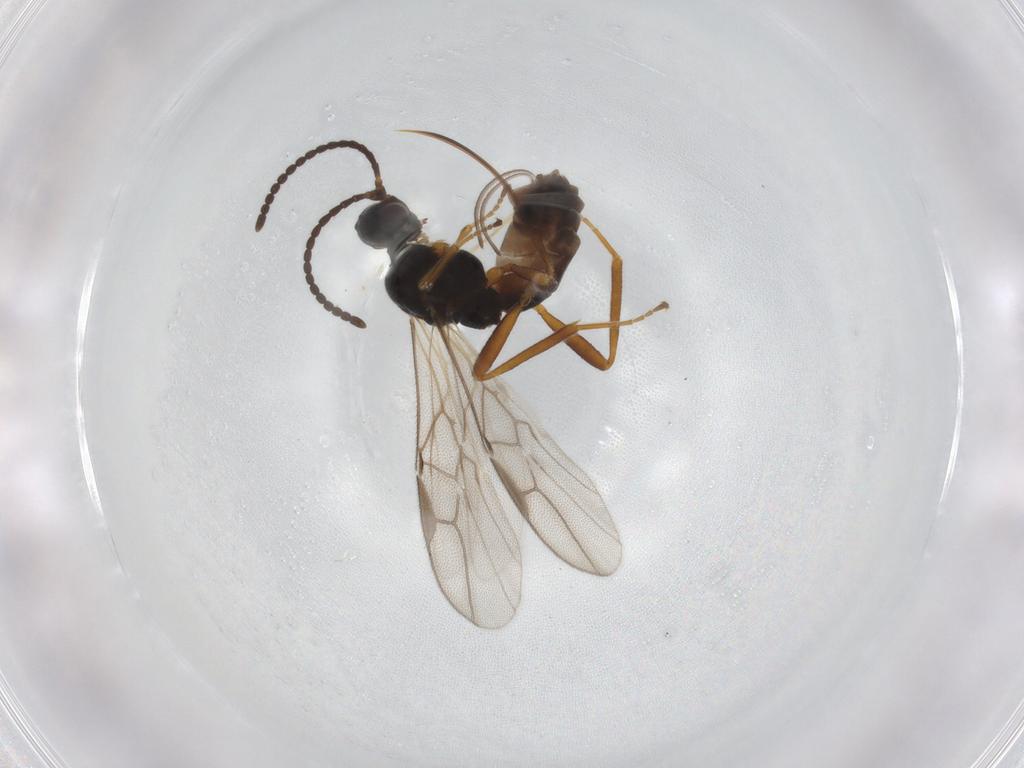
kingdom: Animalia
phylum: Arthropoda
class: Insecta
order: Hymenoptera
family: Braconidae
